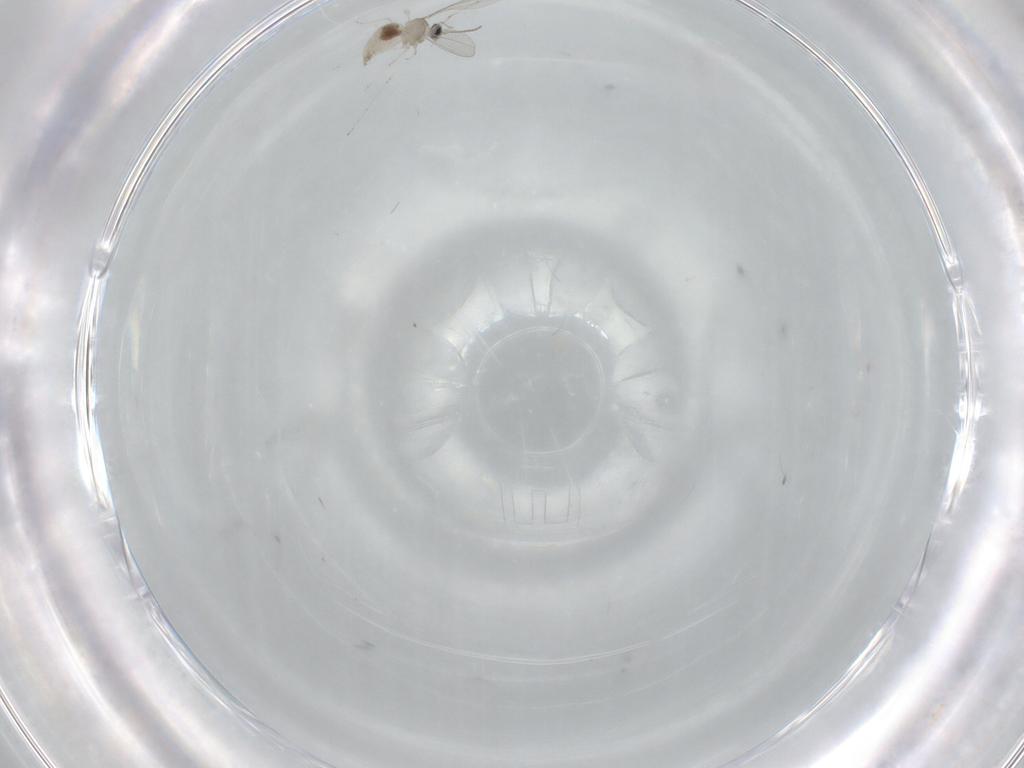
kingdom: Animalia
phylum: Arthropoda
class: Insecta
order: Diptera
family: Cecidomyiidae
